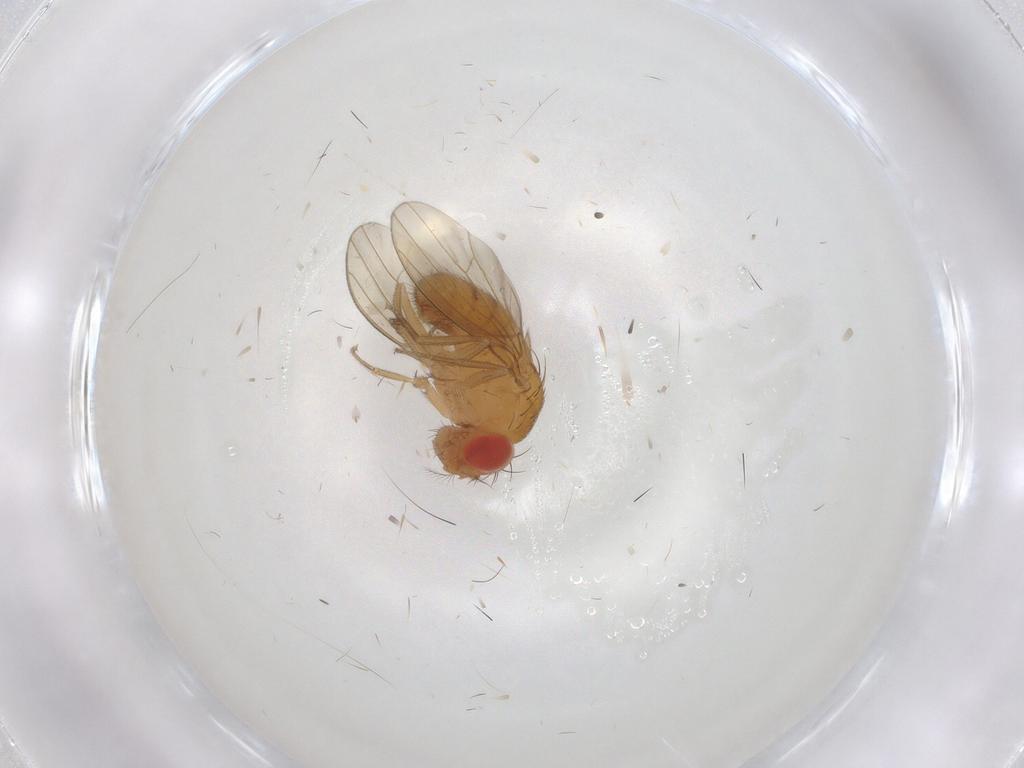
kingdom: Animalia
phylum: Arthropoda
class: Insecta
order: Diptera
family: Drosophilidae
